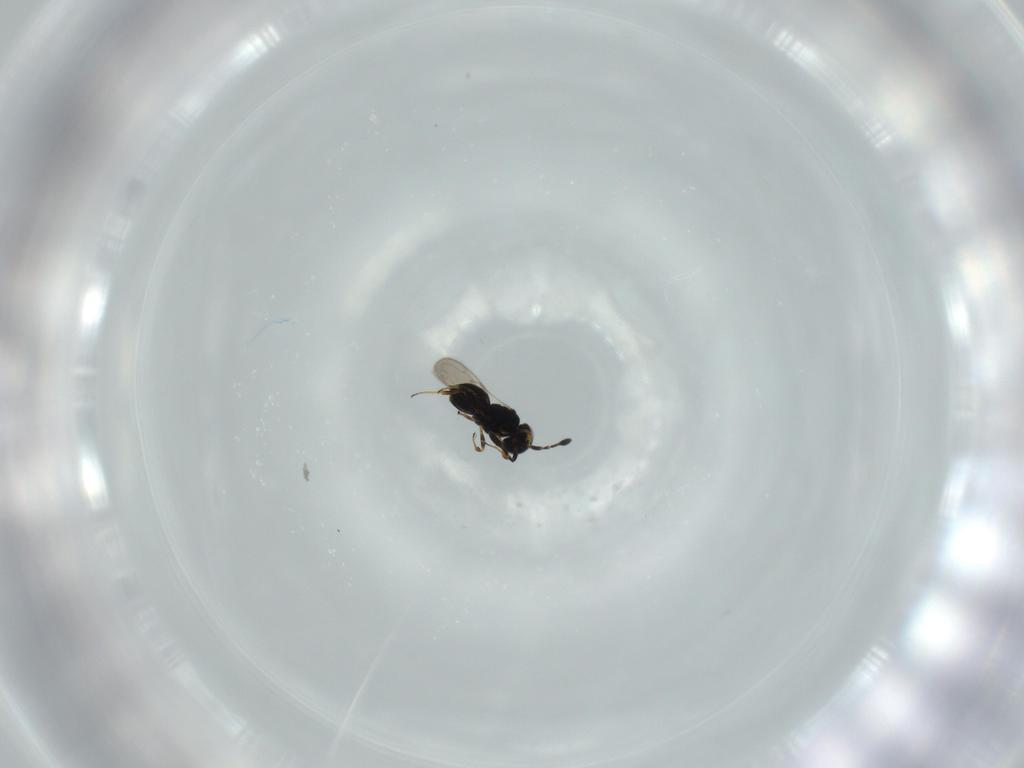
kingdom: Animalia
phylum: Arthropoda
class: Insecta
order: Hymenoptera
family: Scelionidae
